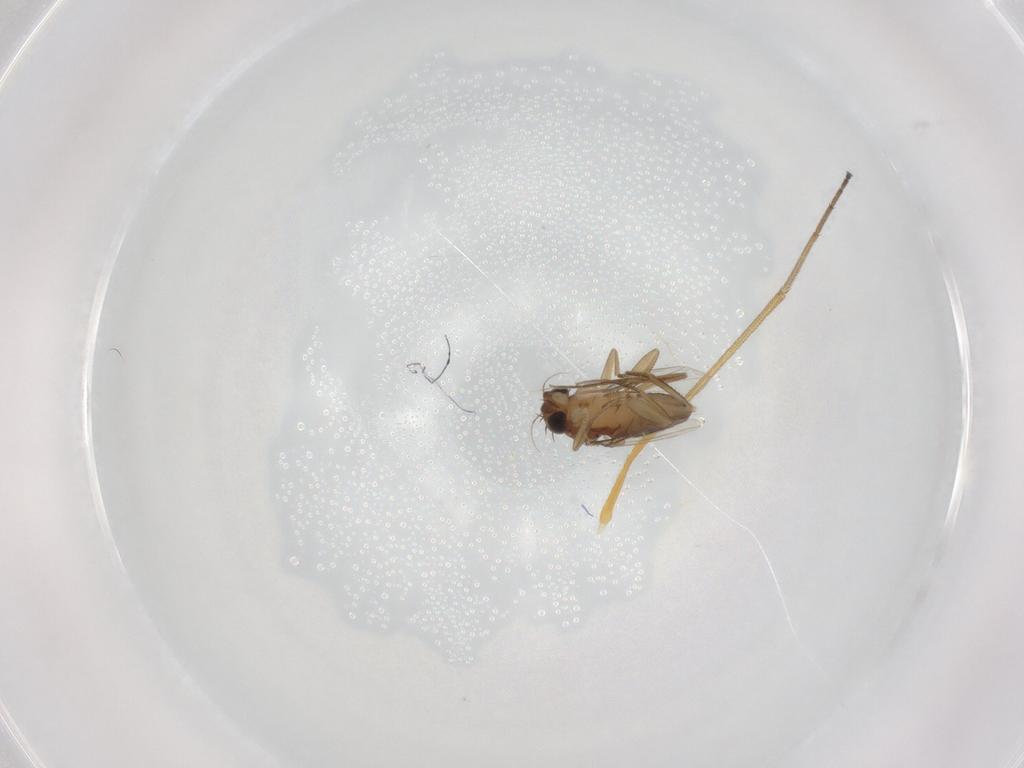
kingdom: Animalia
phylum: Arthropoda
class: Insecta
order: Diptera
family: Dolichopodidae
